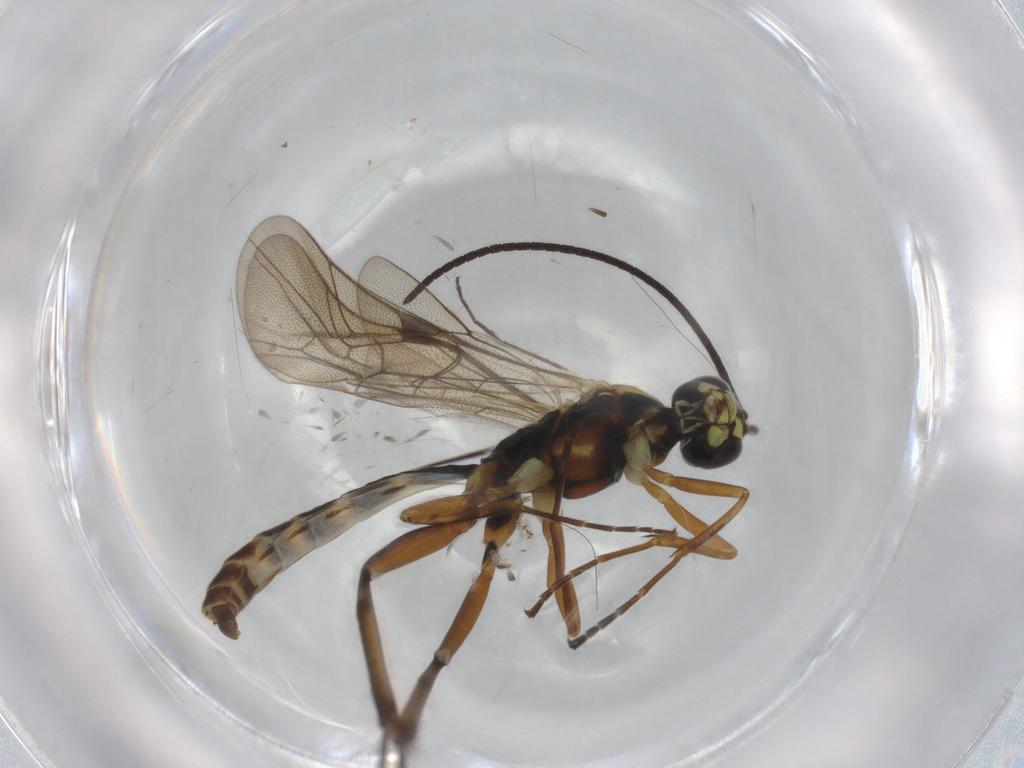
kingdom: Animalia
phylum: Arthropoda
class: Insecta
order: Hymenoptera
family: Ichneumonidae
